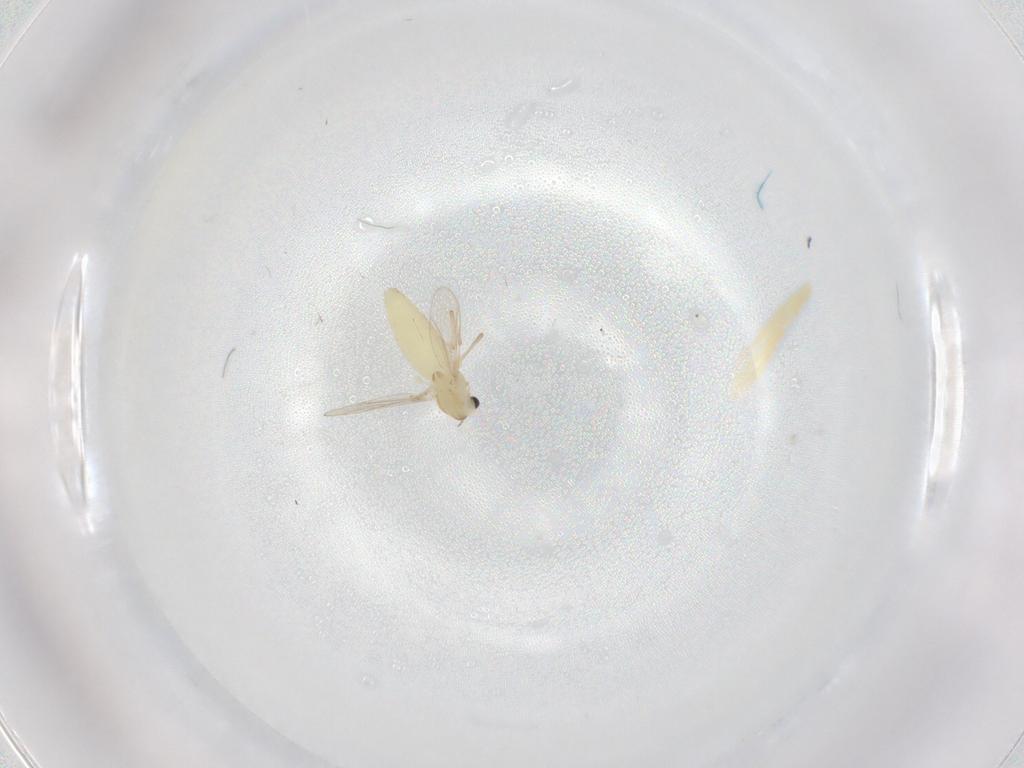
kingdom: Animalia
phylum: Arthropoda
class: Insecta
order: Diptera
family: Chironomidae
